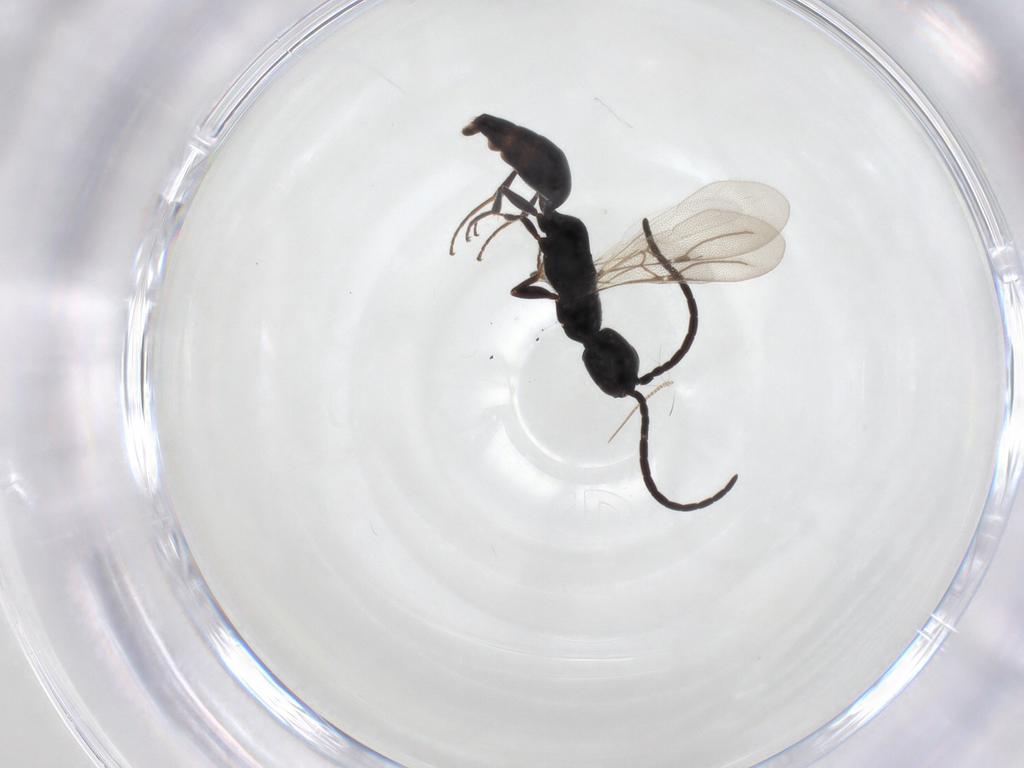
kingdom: Animalia
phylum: Arthropoda
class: Insecta
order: Hymenoptera
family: Bethylidae
